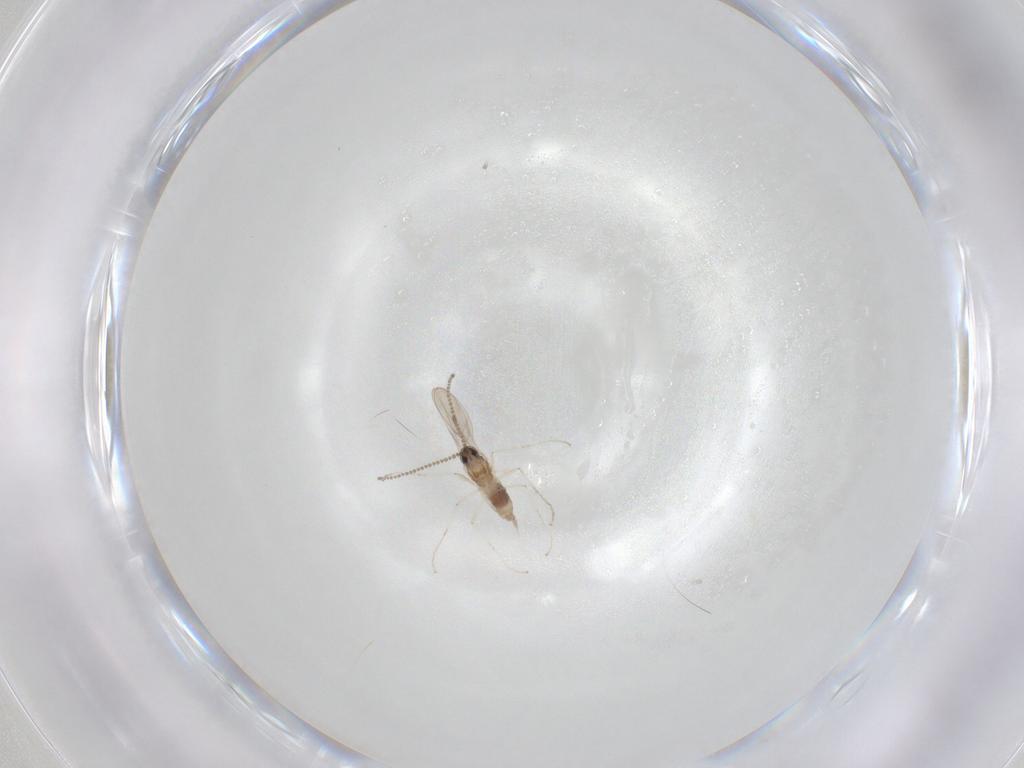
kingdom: Animalia
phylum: Arthropoda
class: Insecta
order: Diptera
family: Cecidomyiidae
